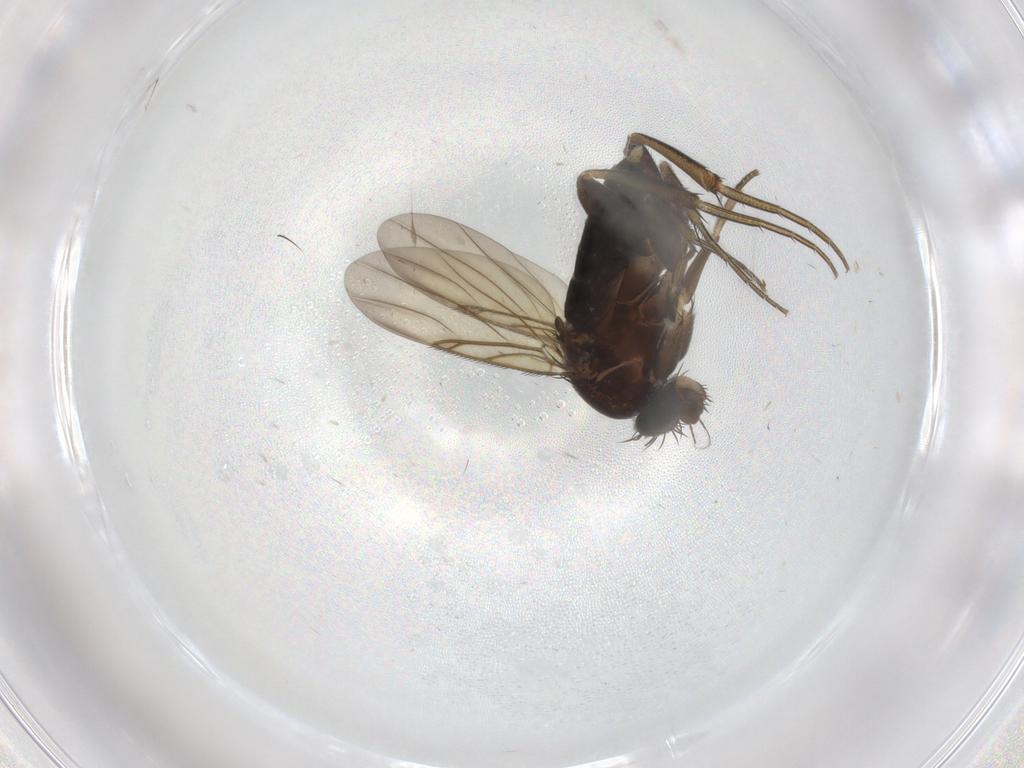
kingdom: Animalia
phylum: Arthropoda
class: Insecta
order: Diptera
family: Phoridae
